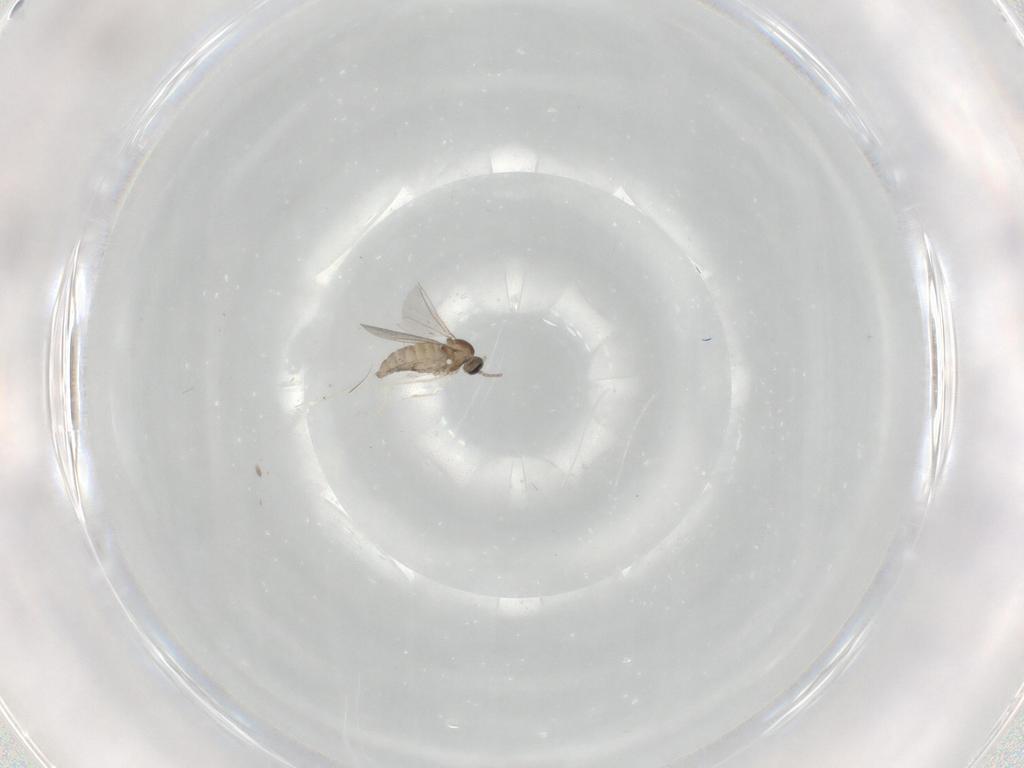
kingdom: Animalia
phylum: Arthropoda
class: Insecta
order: Diptera
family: Cecidomyiidae
